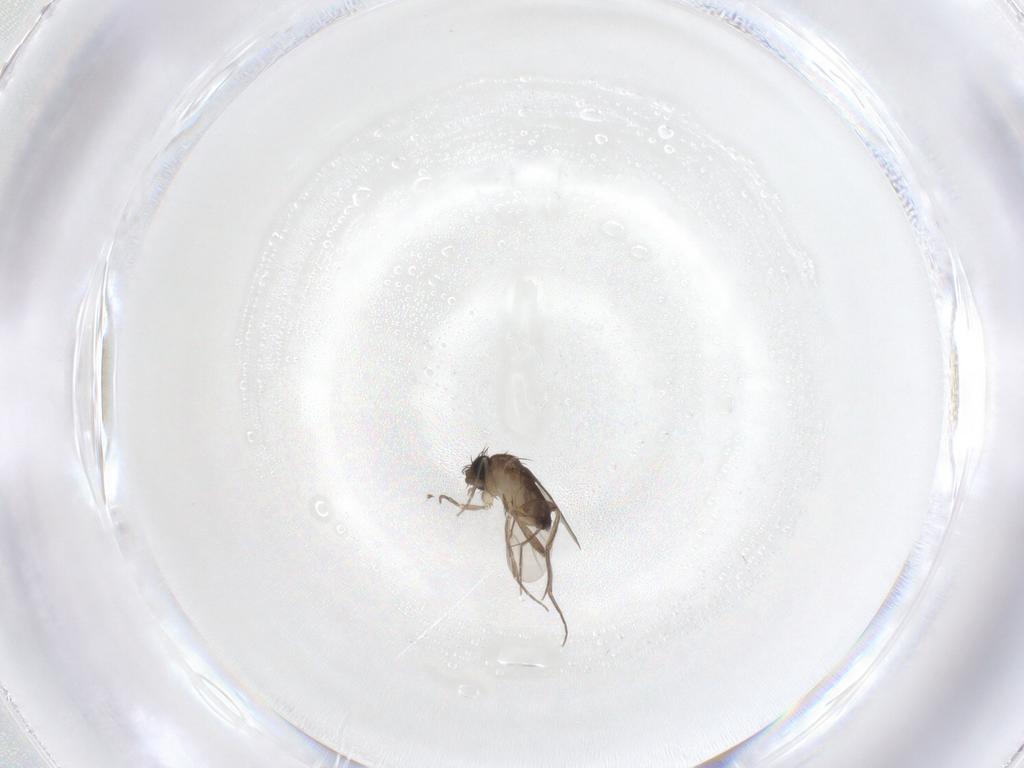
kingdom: Animalia
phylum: Arthropoda
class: Insecta
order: Diptera
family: Phoridae
